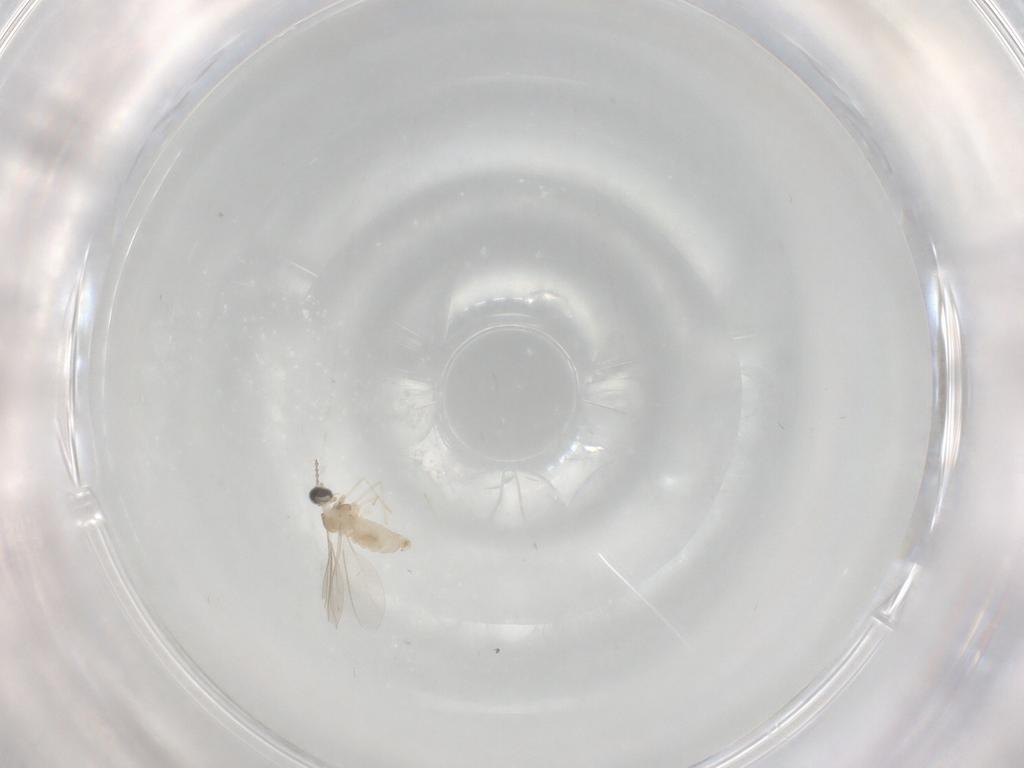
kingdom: Animalia
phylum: Arthropoda
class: Insecta
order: Diptera
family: Cecidomyiidae
